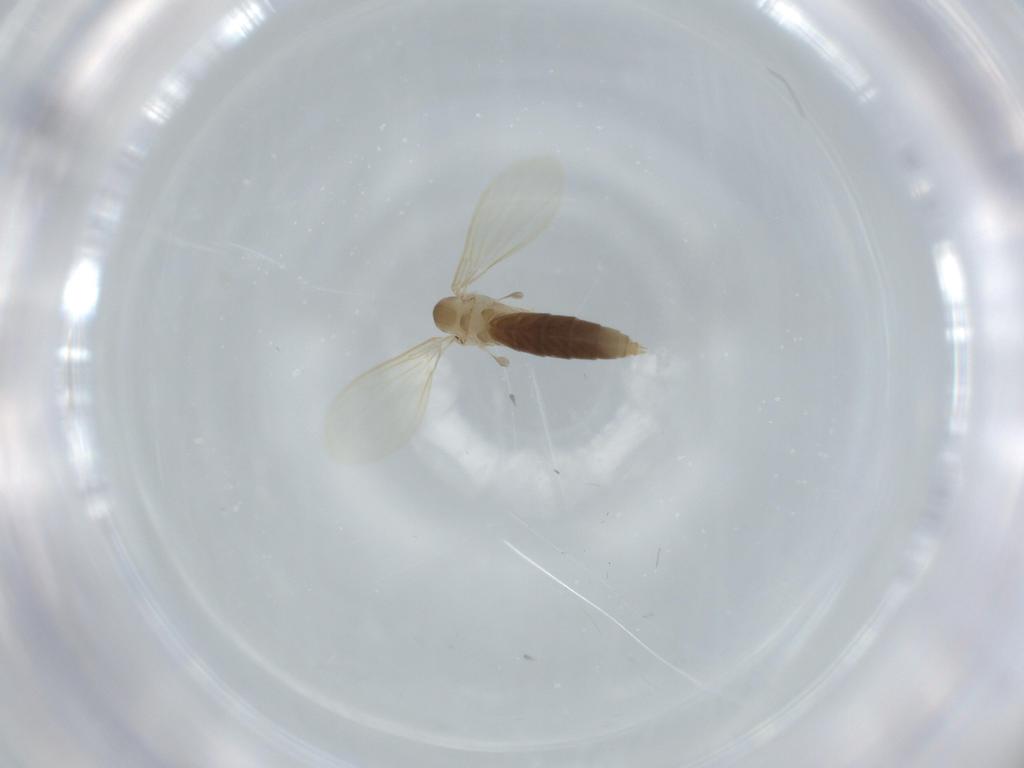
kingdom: Animalia
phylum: Arthropoda
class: Insecta
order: Diptera
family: Psychodidae
